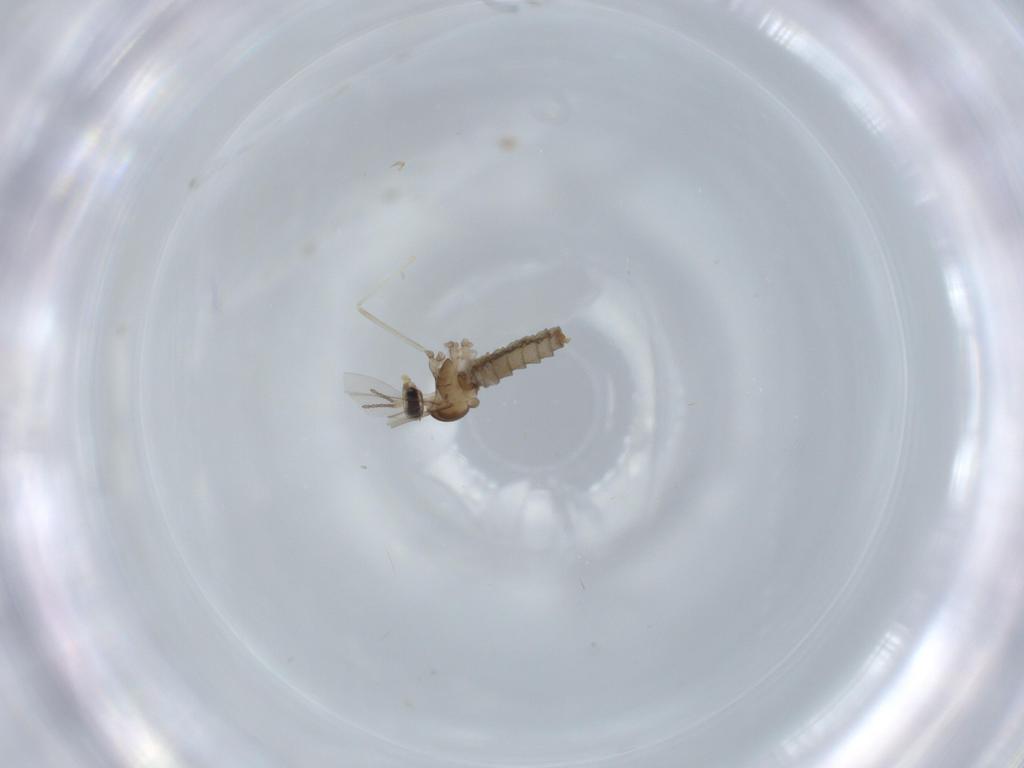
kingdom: Animalia
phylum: Arthropoda
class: Insecta
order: Diptera
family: Cecidomyiidae
